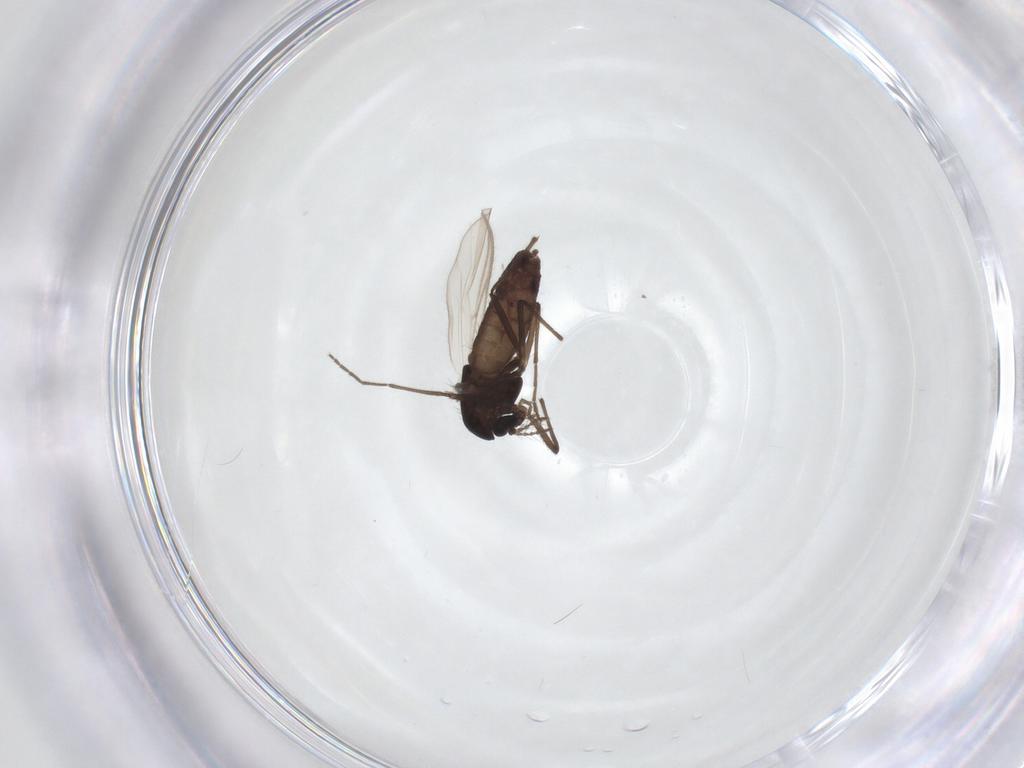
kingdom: Animalia
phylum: Arthropoda
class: Insecta
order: Diptera
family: Chironomidae
